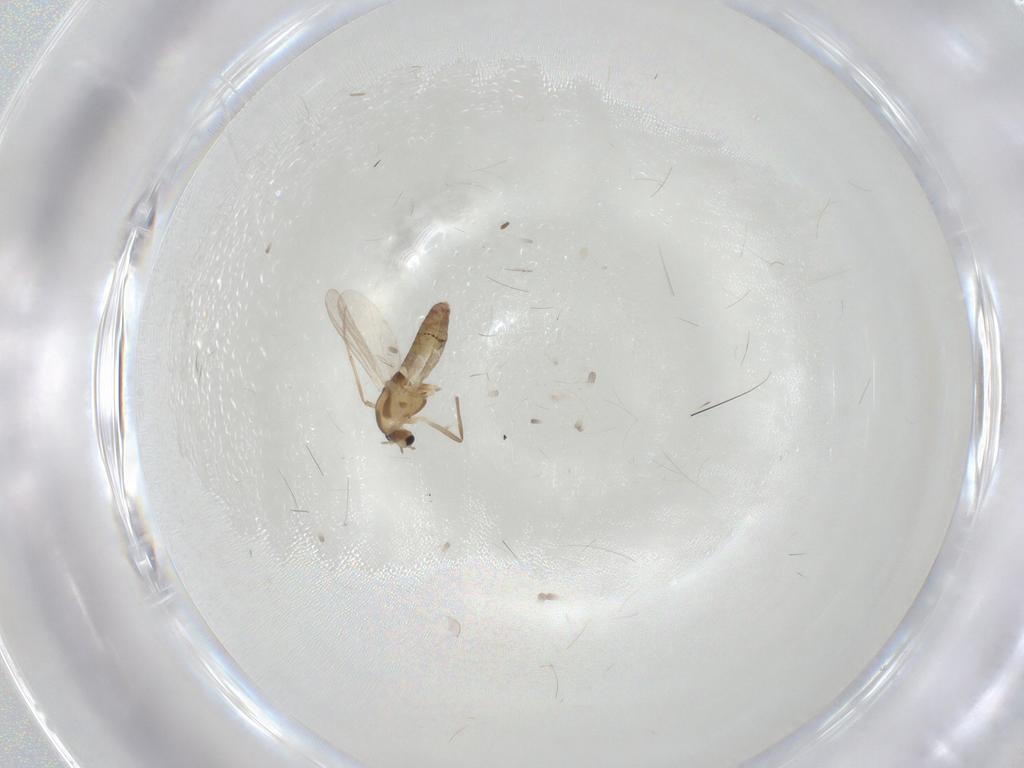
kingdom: Animalia
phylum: Arthropoda
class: Insecta
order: Diptera
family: Chironomidae
